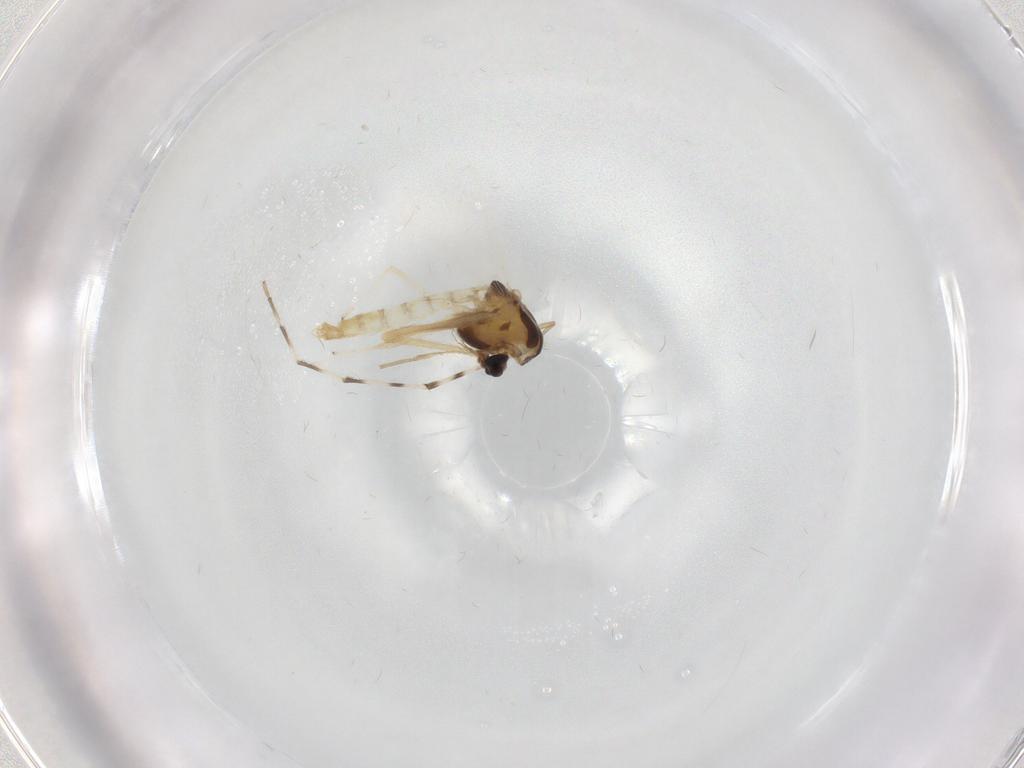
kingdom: Animalia
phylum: Arthropoda
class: Insecta
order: Diptera
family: Chironomidae
